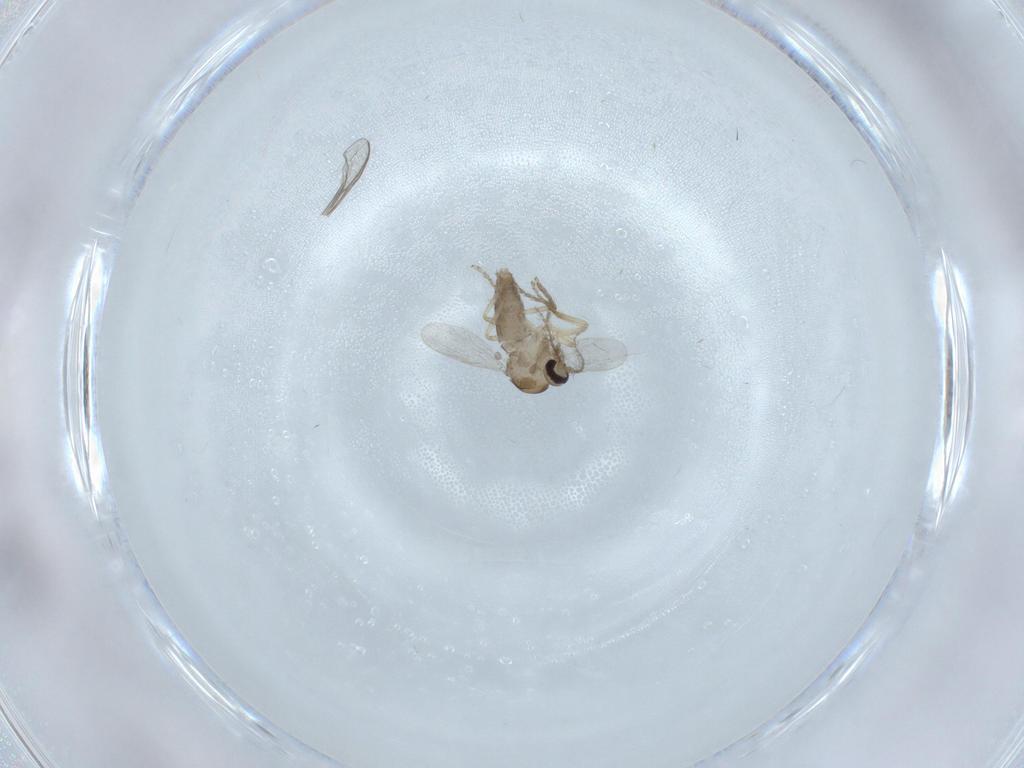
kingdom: Animalia
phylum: Arthropoda
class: Insecta
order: Diptera
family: Ceratopogonidae
